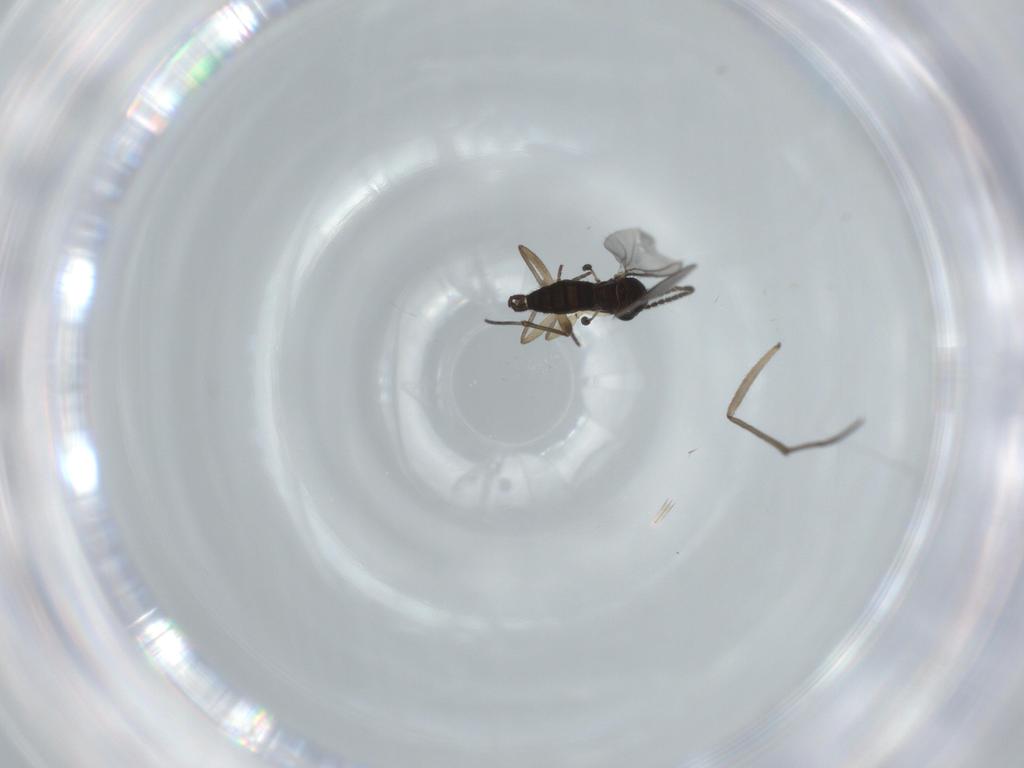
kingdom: Animalia
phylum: Arthropoda
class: Insecta
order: Diptera
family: Sciaridae
